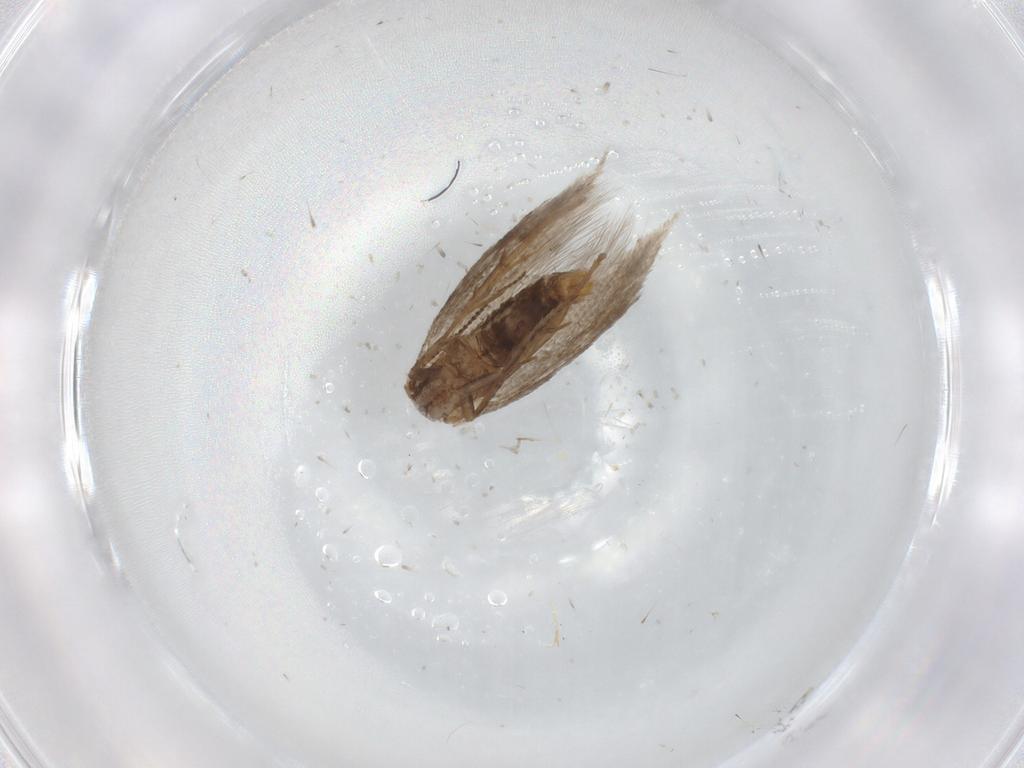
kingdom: Animalia
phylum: Arthropoda
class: Insecta
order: Lepidoptera
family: Nepticulidae
